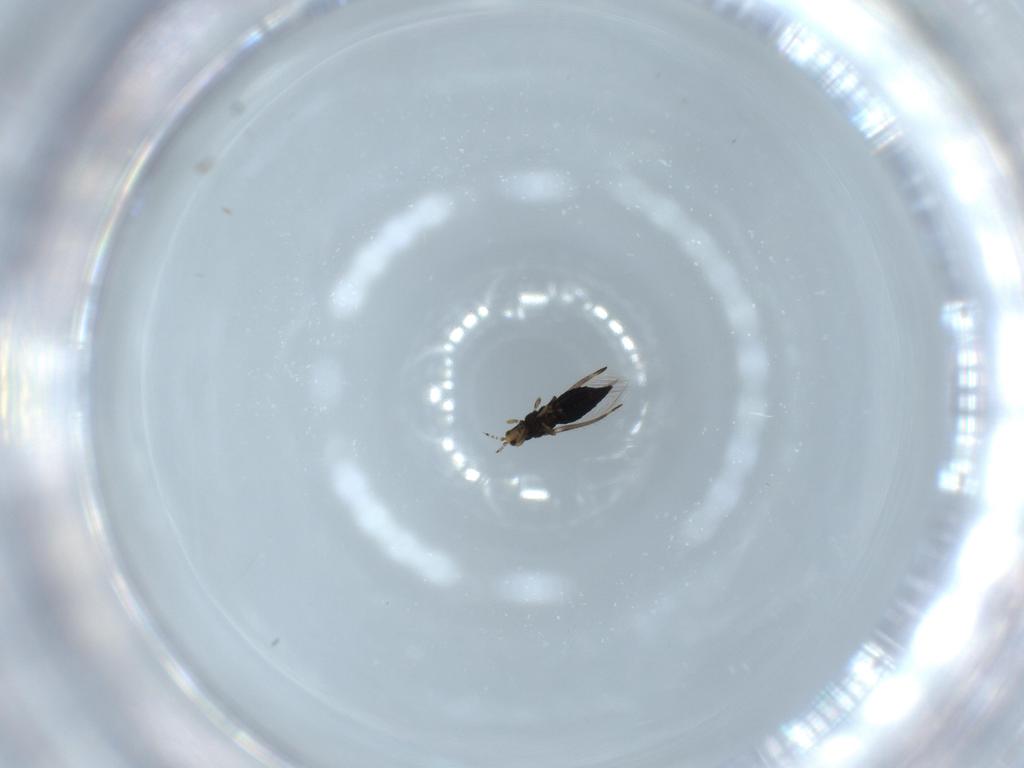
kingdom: Animalia
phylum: Arthropoda
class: Insecta
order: Thysanoptera
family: Thripidae
